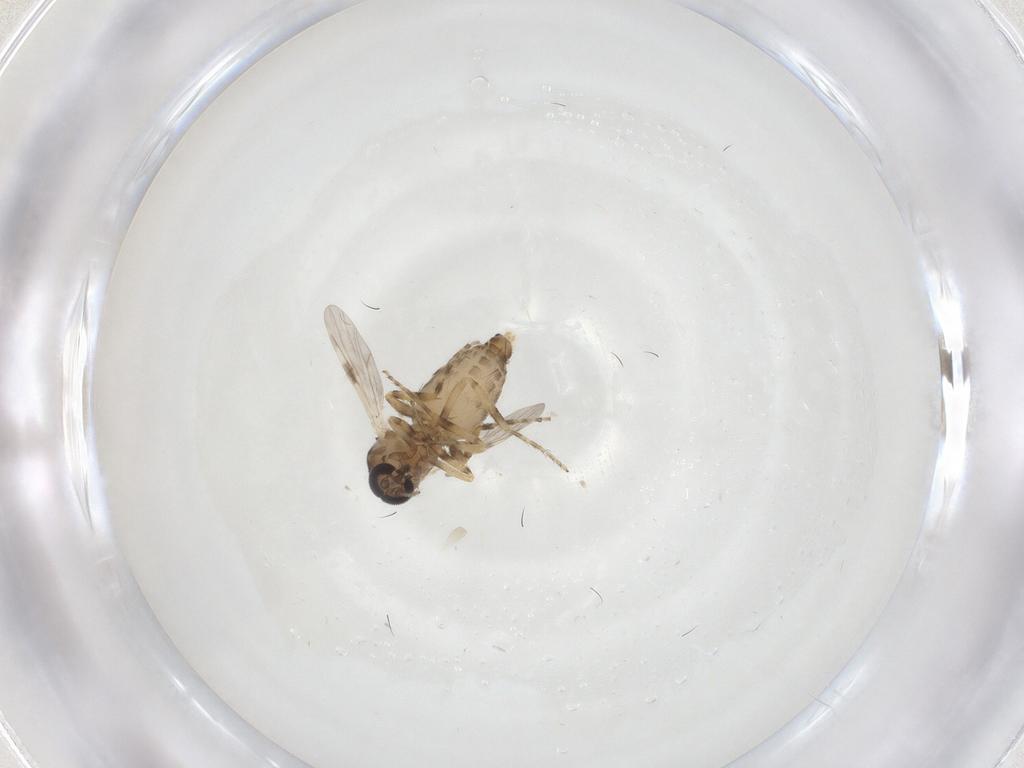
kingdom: Animalia
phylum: Arthropoda
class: Insecta
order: Diptera
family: Ceratopogonidae
